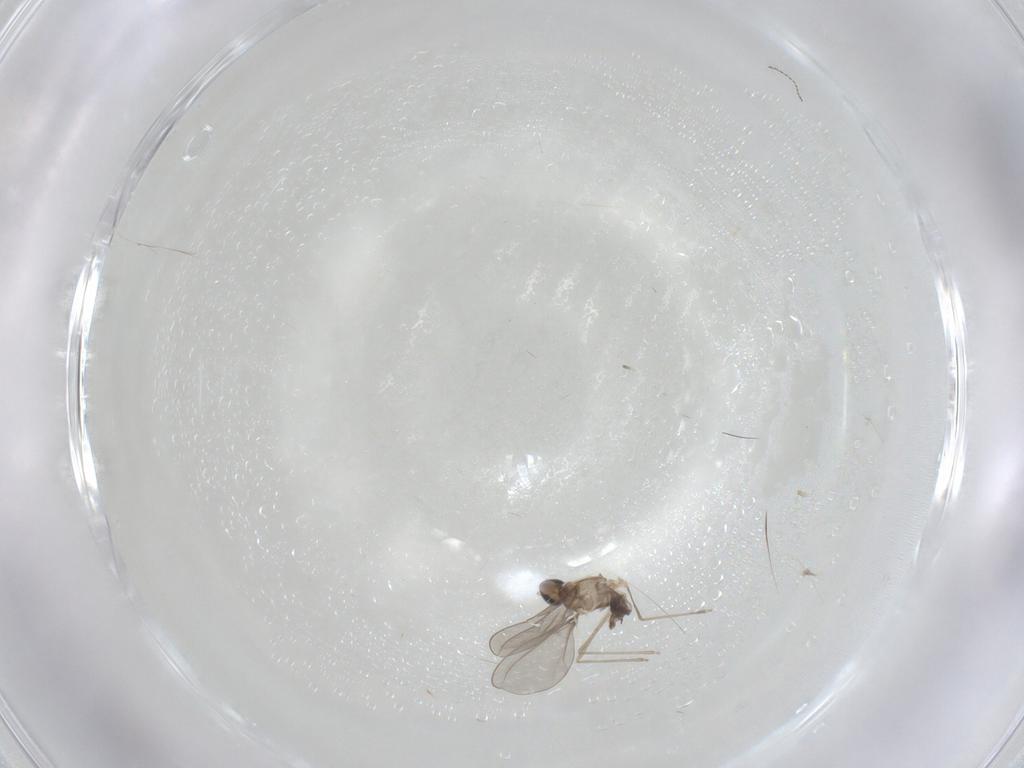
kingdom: Animalia
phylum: Arthropoda
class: Insecta
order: Diptera
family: Cecidomyiidae
